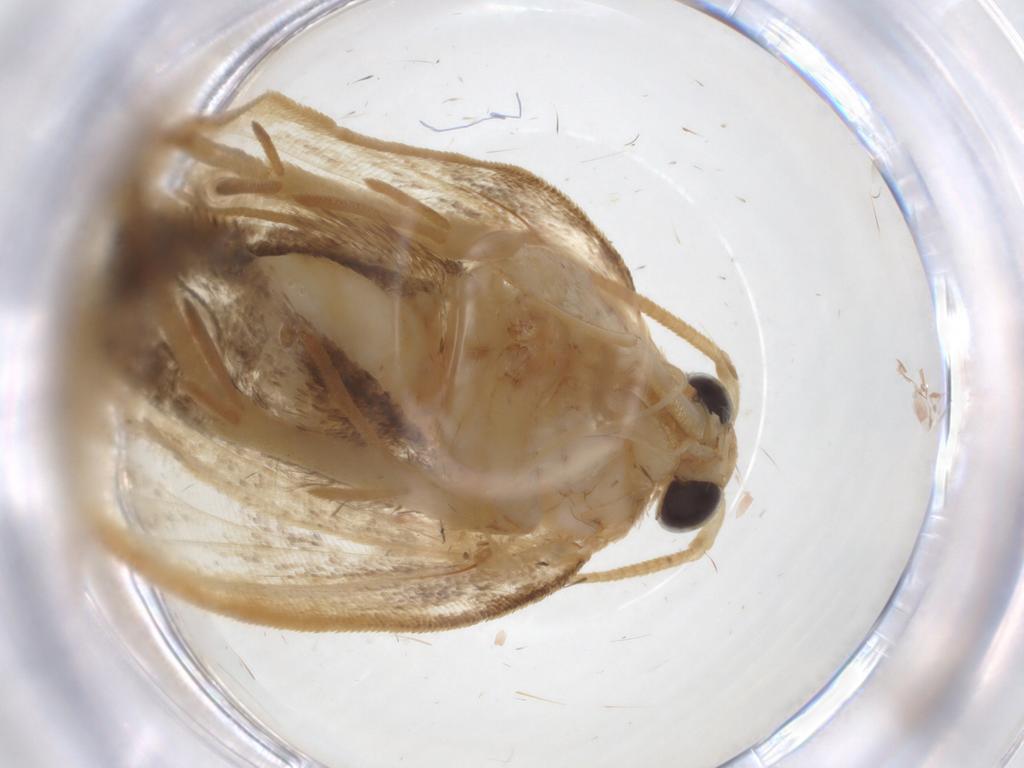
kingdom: Animalia
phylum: Arthropoda
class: Insecta
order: Lepidoptera
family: Depressariidae
